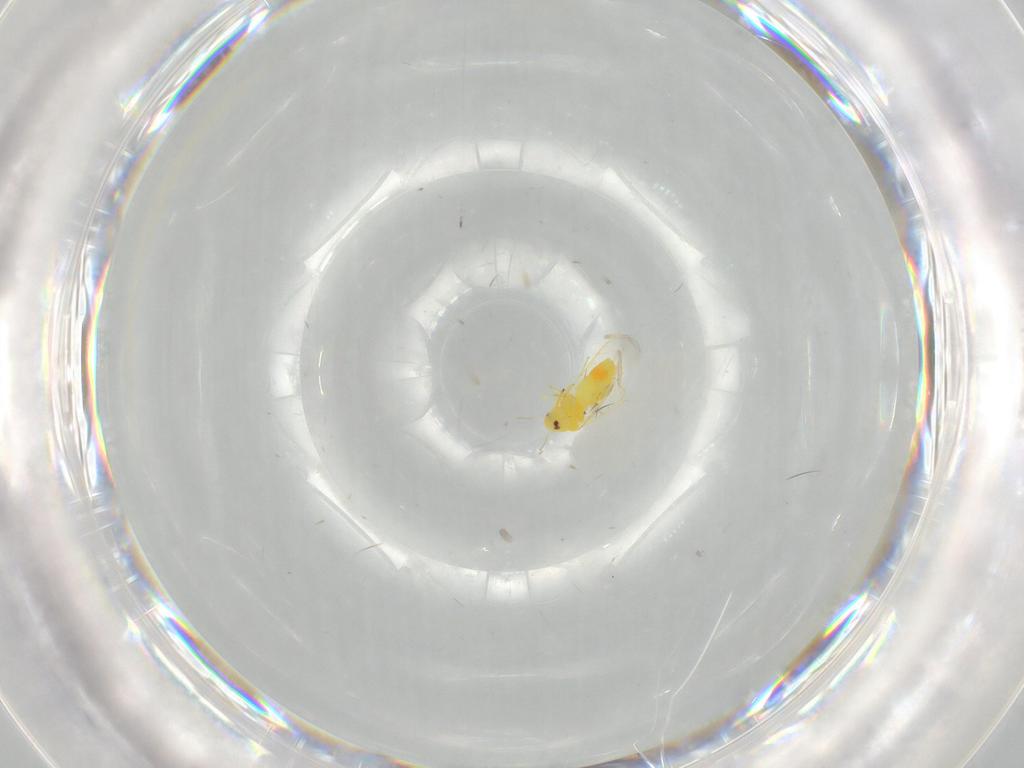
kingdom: Animalia
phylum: Arthropoda
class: Insecta
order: Hemiptera
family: Aleyrodidae
